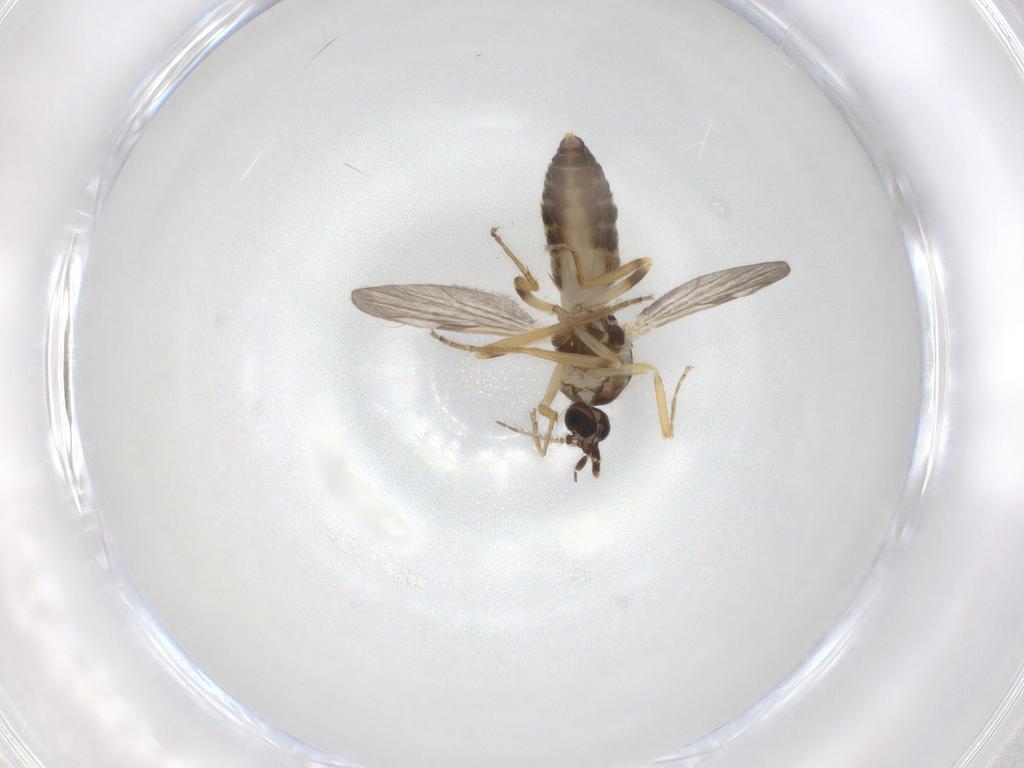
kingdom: Animalia
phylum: Arthropoda
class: Insecta
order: Diptera
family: Ceratopogonidae
